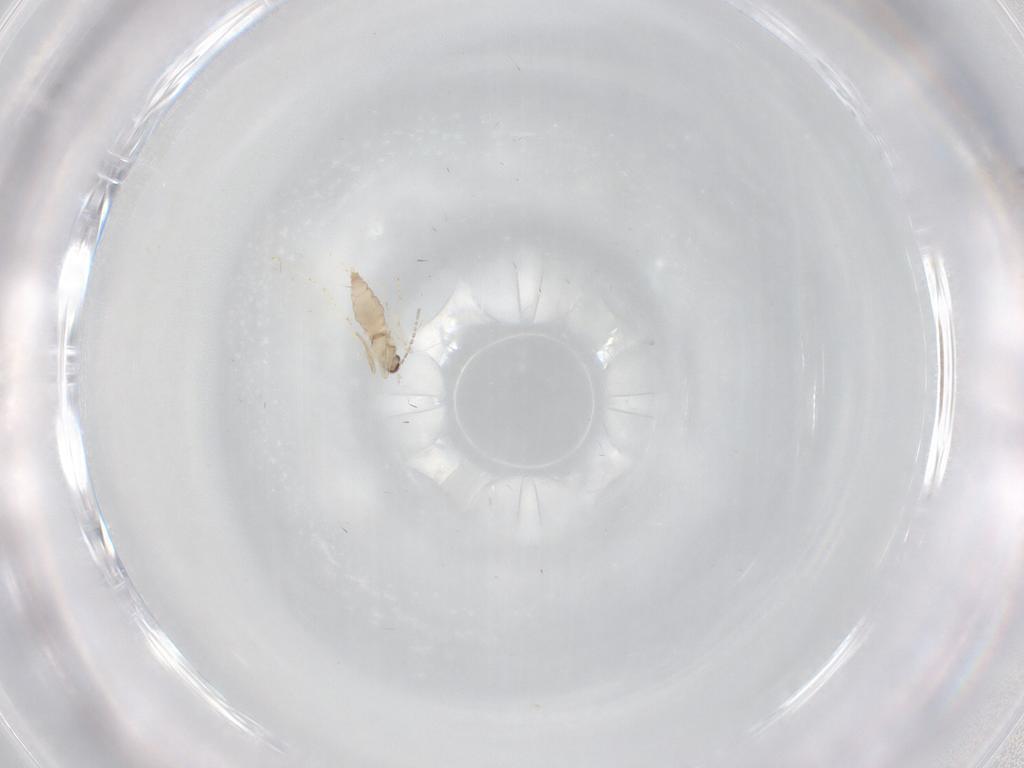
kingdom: Animalia
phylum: Arthropoda
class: Insecta
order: Diptera
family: Cecidomyiidae
